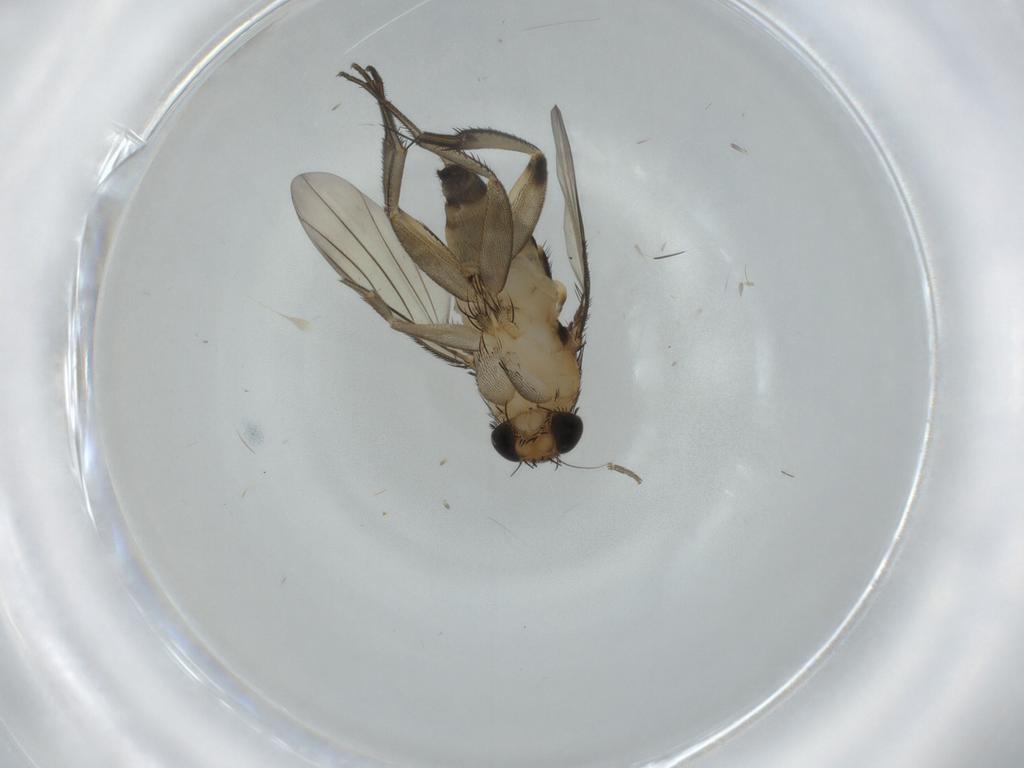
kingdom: Animalia
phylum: Arthropoda
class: Insecta
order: Diptera
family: Phoridae
